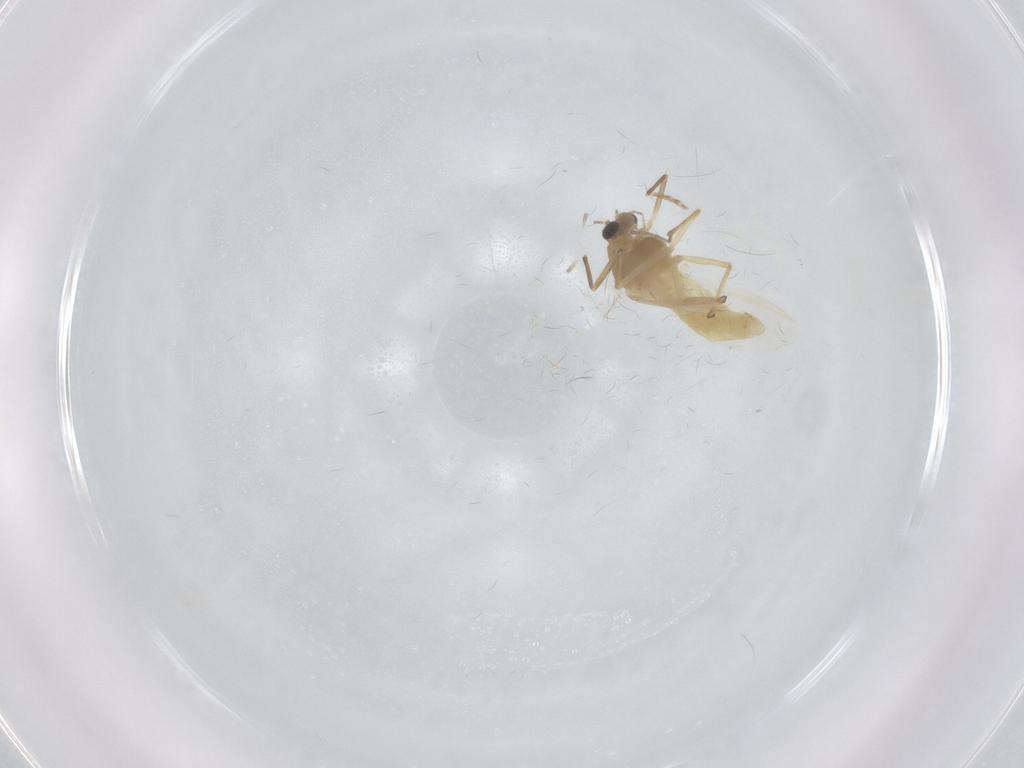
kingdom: Animalia
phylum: Arthropoda
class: Insecta
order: Diptera
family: Chironomidae
